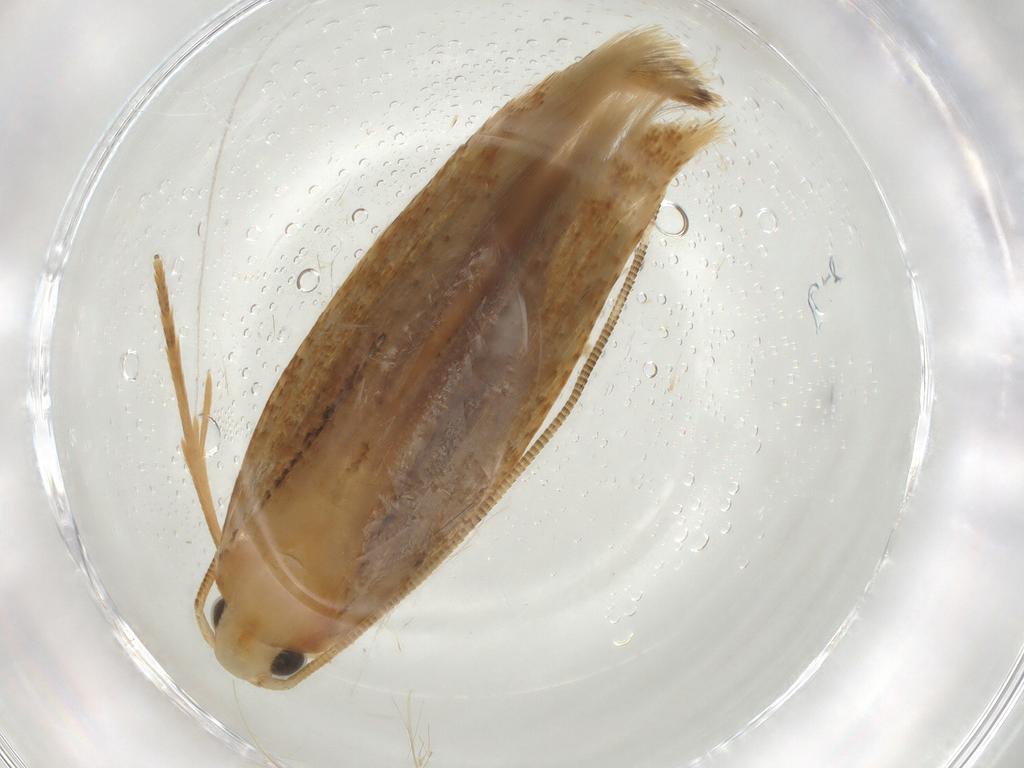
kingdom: Animalia
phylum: Arthropoda
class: Insecta
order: Lepidoptera
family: Tineidae
